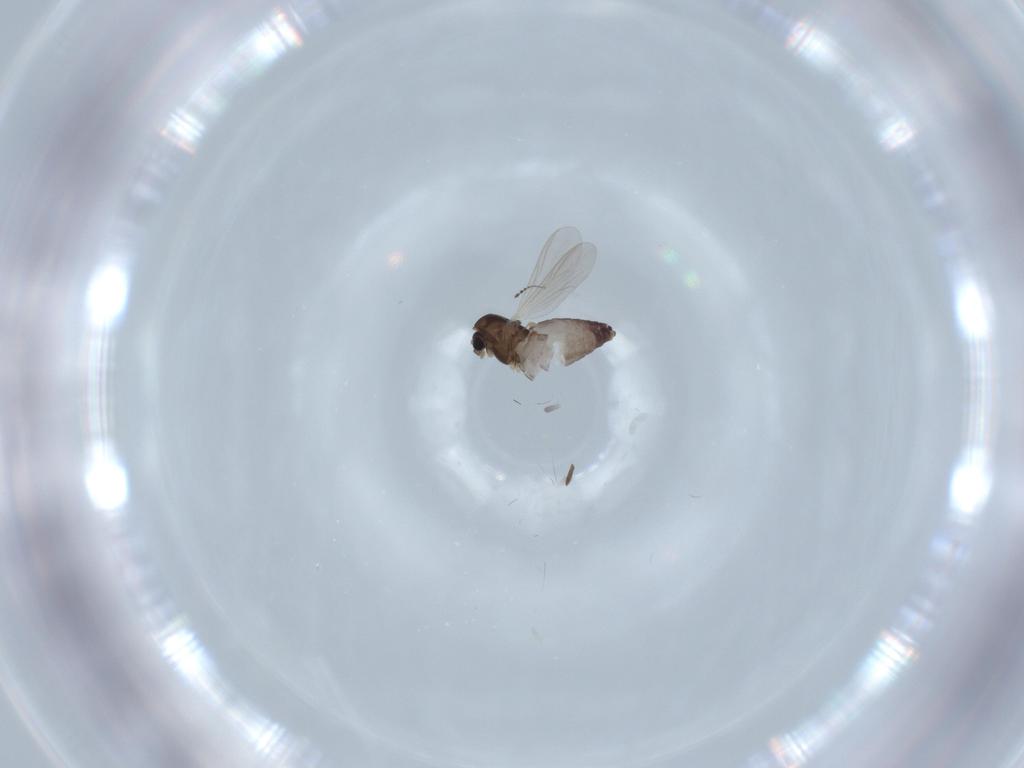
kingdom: Animalia
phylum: Arthropoda
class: Insecta
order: Diptera
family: Chironomidae
